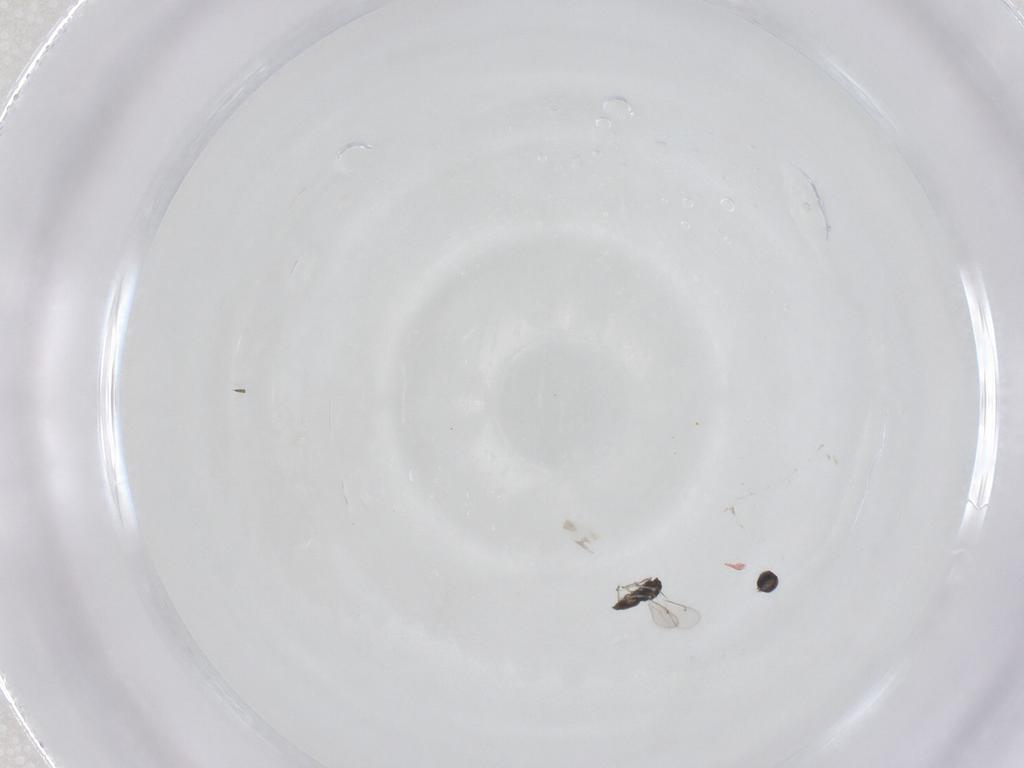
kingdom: Animalia
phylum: Arthropoda
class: Insecta
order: Hymenoptera
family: Eulophidae
